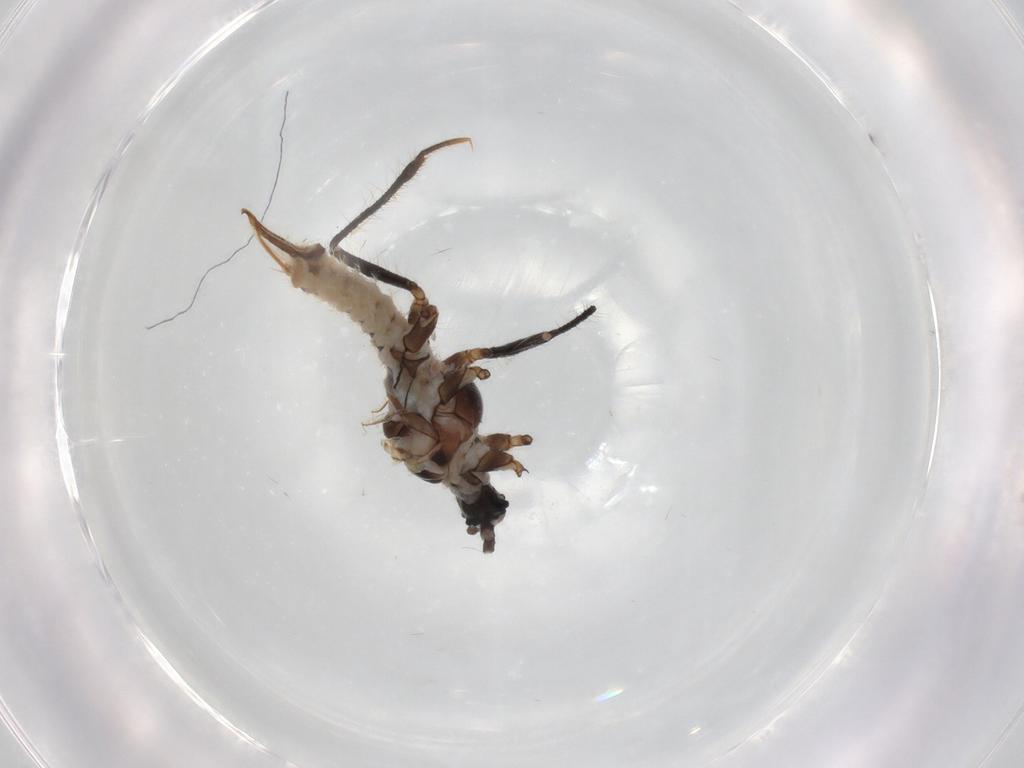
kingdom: Animalia
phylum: Arthropoda
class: Insecta
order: Hemiptera
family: Putoidae
